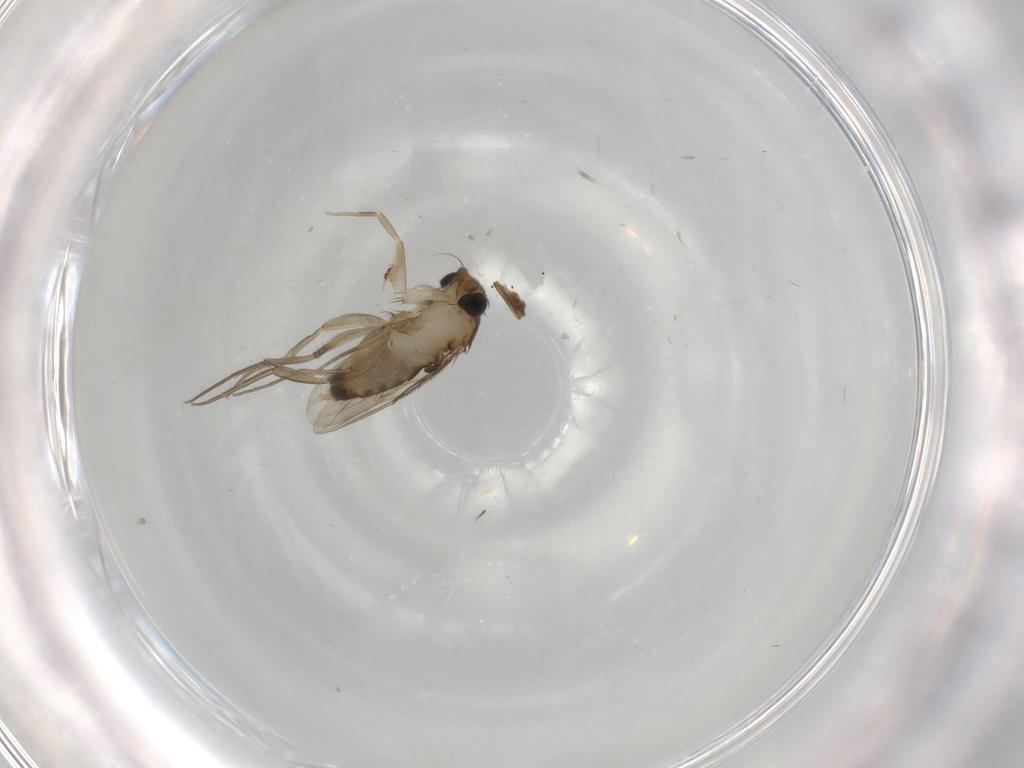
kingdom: Animalia
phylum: Arthropoda
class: Insecta
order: Diptera
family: Phoridae
